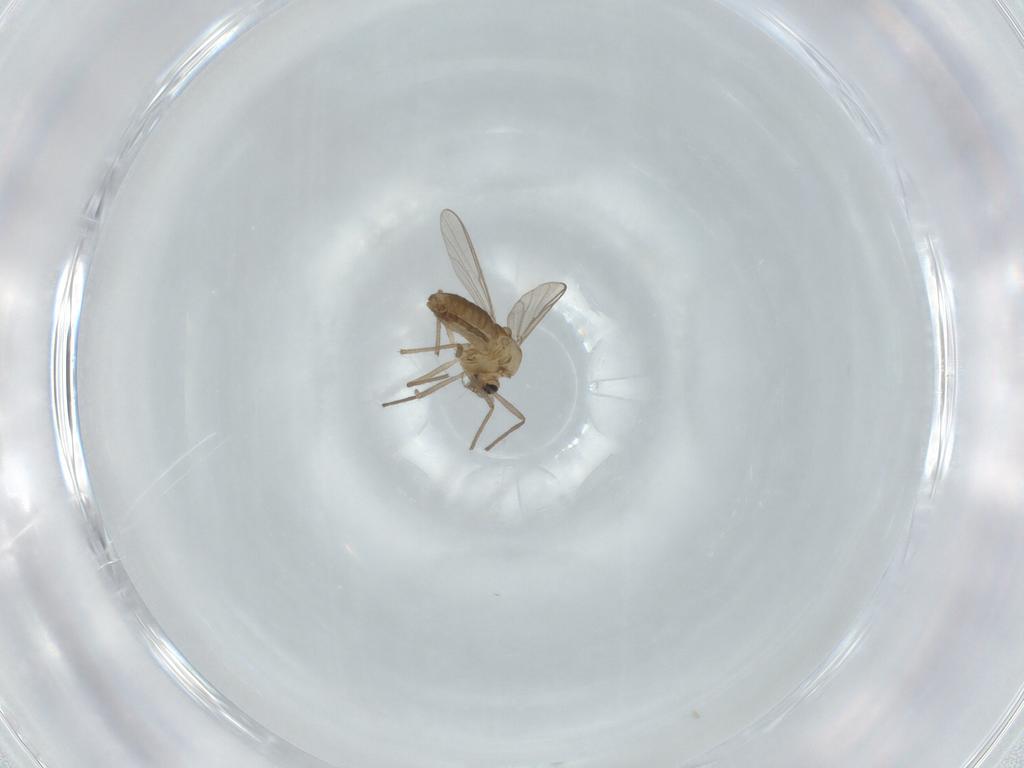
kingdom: Animalia
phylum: Arthropoda
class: Insecta
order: Diptera
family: Chironomidae
